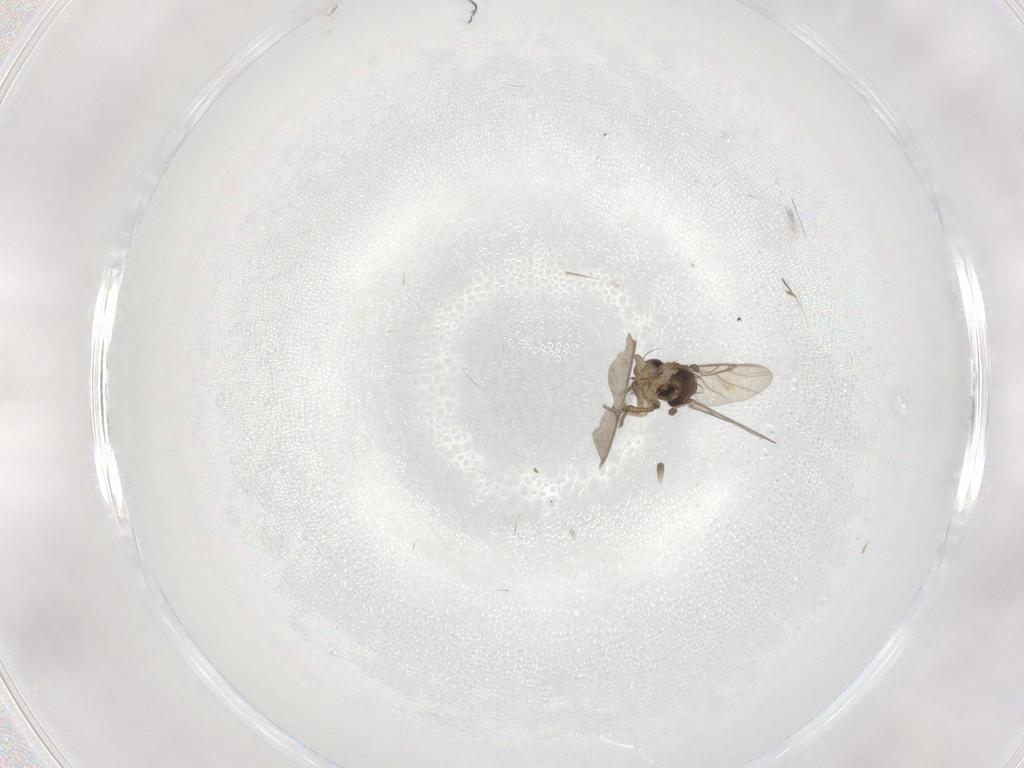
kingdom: Animalia
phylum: Arthropoda
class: Insecta
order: Diptera
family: Phoridae
